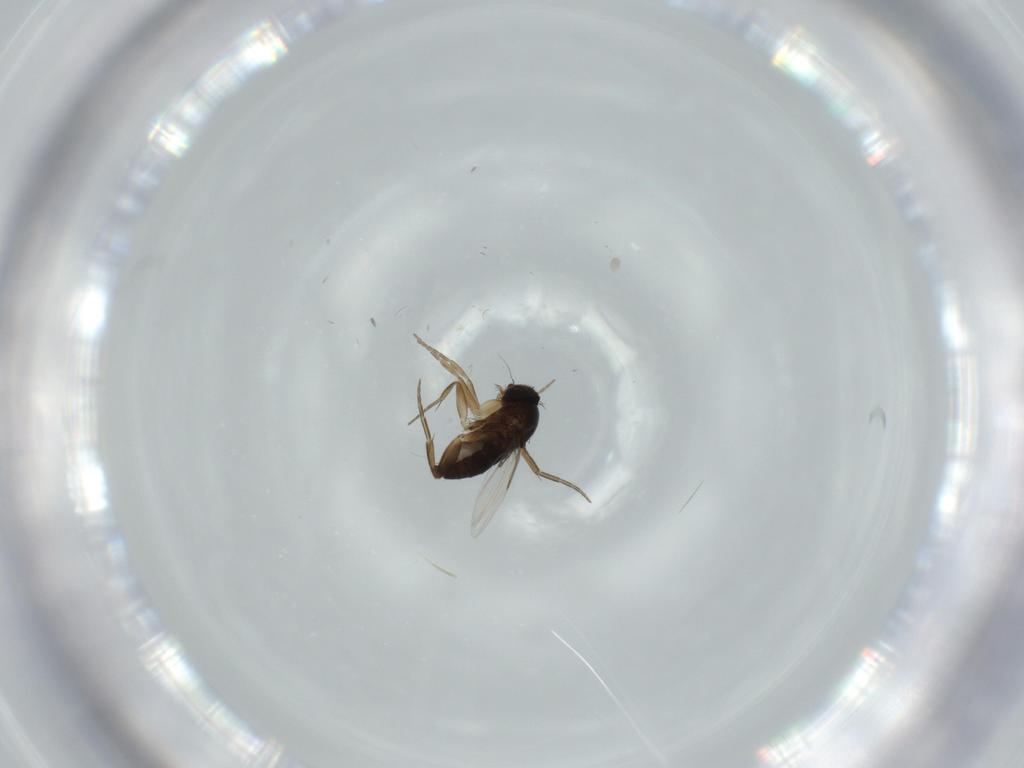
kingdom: Animalia
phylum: Arthropoda
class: Insecta
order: Diptera
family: Phoridae
